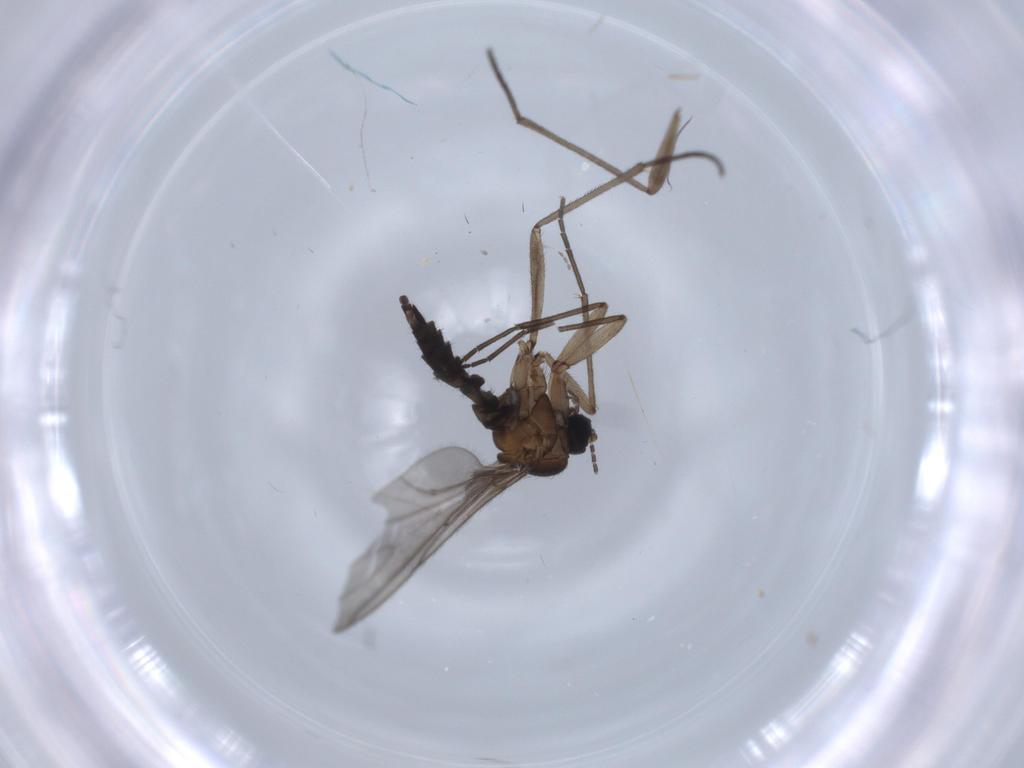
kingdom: Animalia
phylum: Arthropoda
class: Insecta
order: Diptera
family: Sciaridae
